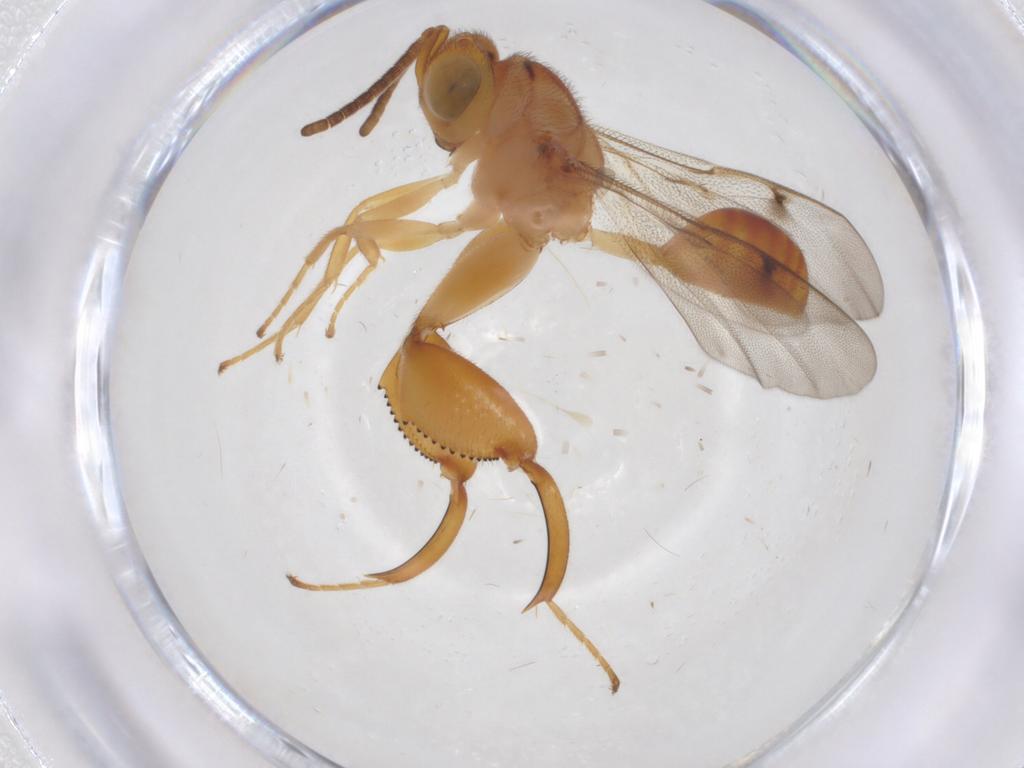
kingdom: Animalia
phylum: Arthropoda
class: Insecta
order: Hymenoptera
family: Chalcididae
